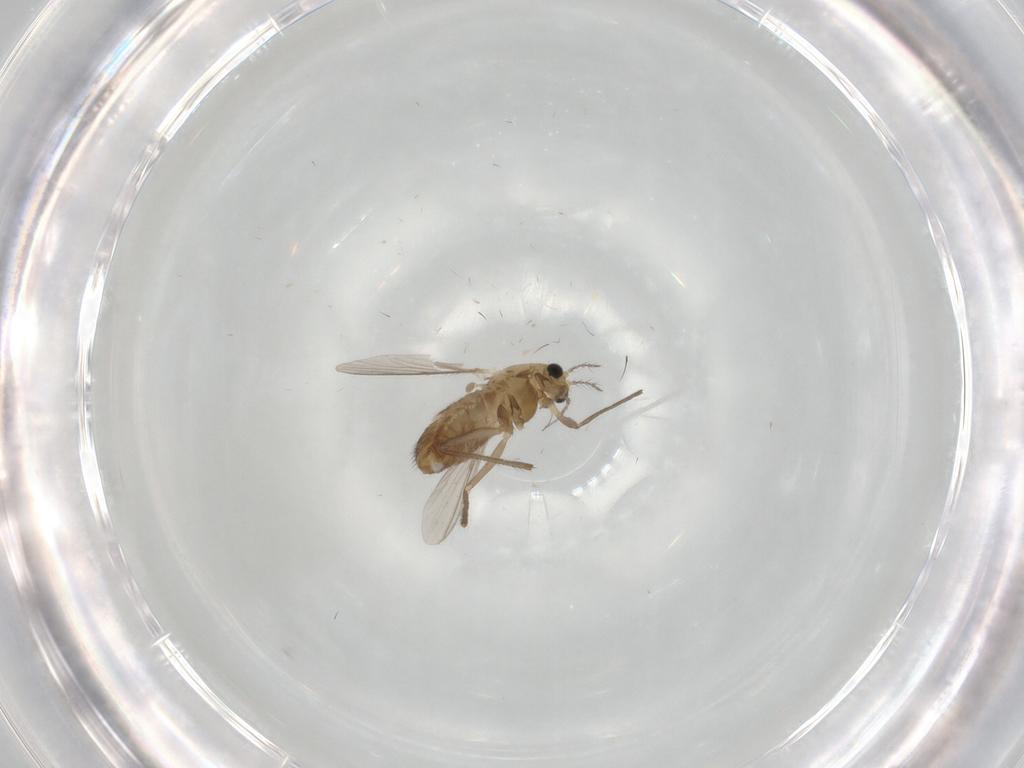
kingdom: Animalia
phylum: Arthropoda
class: Insecta
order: Diptera
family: Chironomidae
